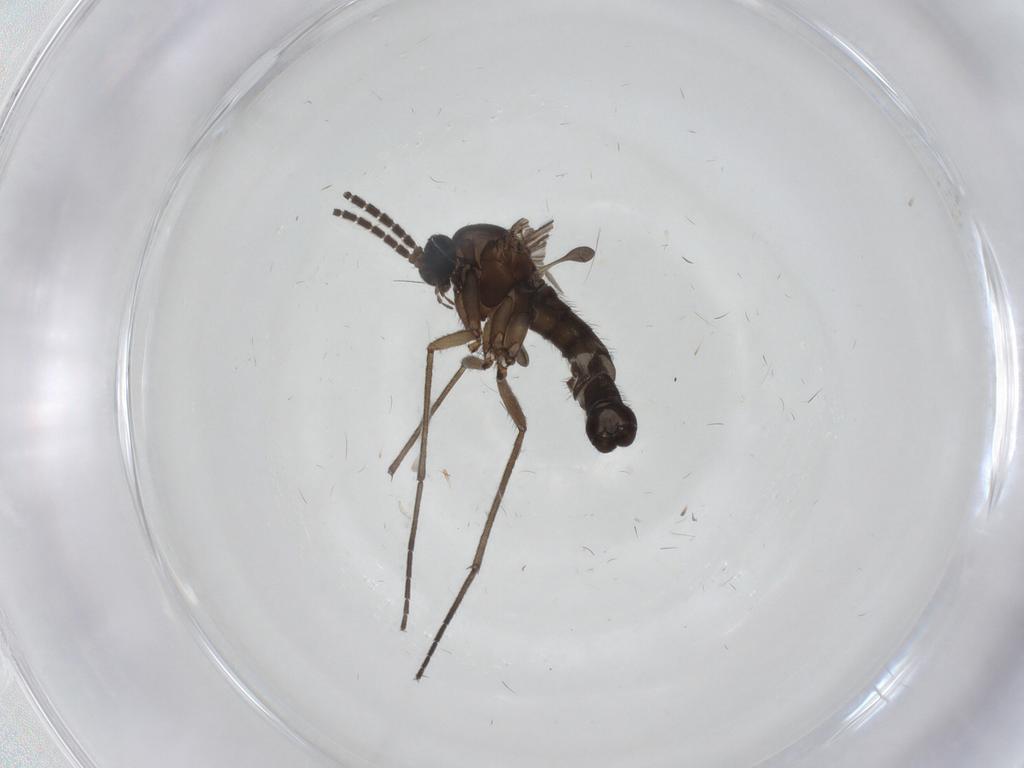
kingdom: Animalia
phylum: Arthropoda
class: Insecta
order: Diptera
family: Sciaridae
